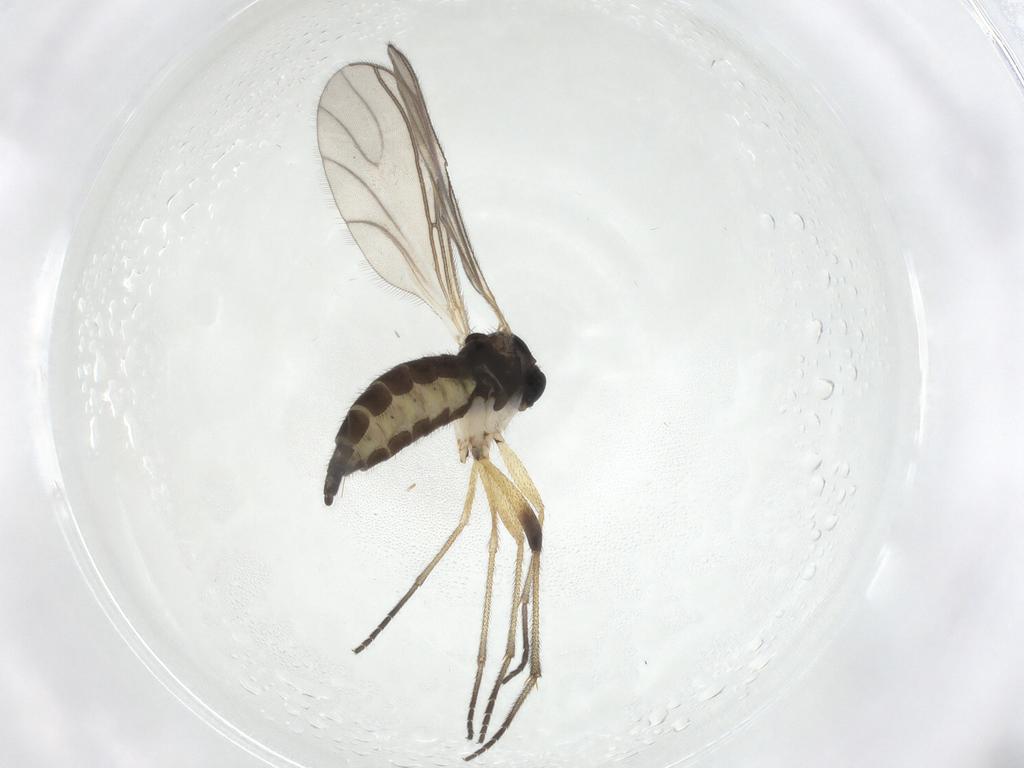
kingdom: Animalia
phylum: Arthropoda
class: Insecta
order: Diptera
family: Sciaridae
